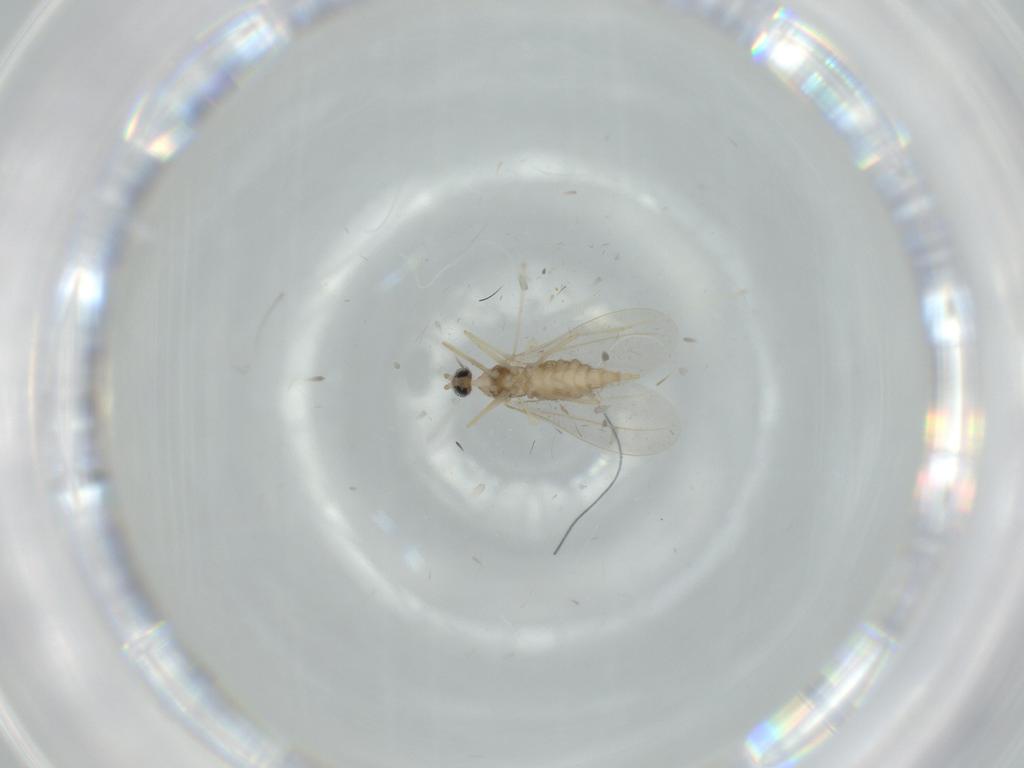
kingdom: Animalia
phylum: Arthropoda
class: Insecta
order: Diptera
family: Cecidomyiidae
